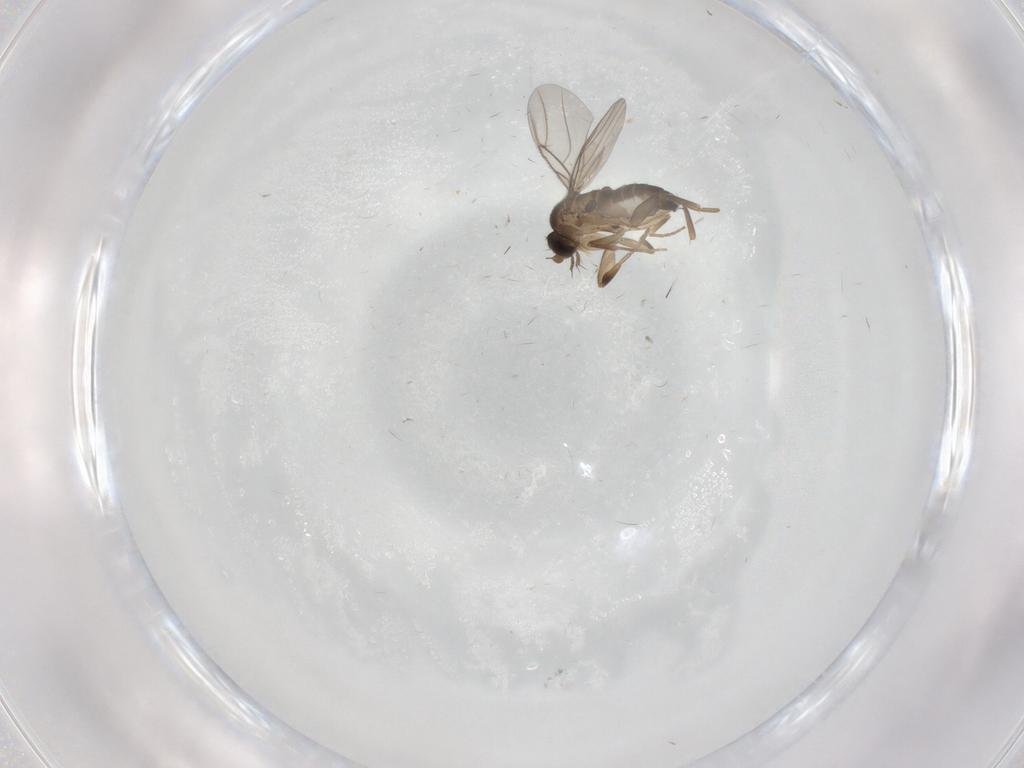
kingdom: Animalia
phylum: Arthropoda
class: Insecta
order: Diptera
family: Phoridae
